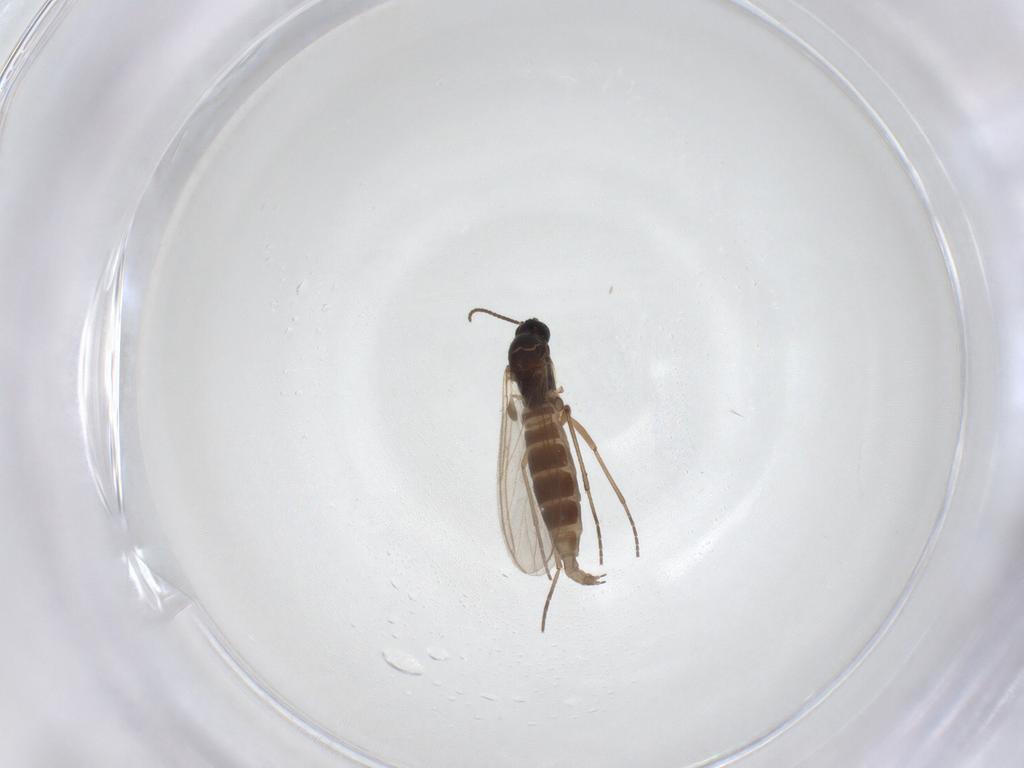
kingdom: Animalia
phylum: Arthropoda
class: Insecta
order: Diptera
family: Sciaridae
